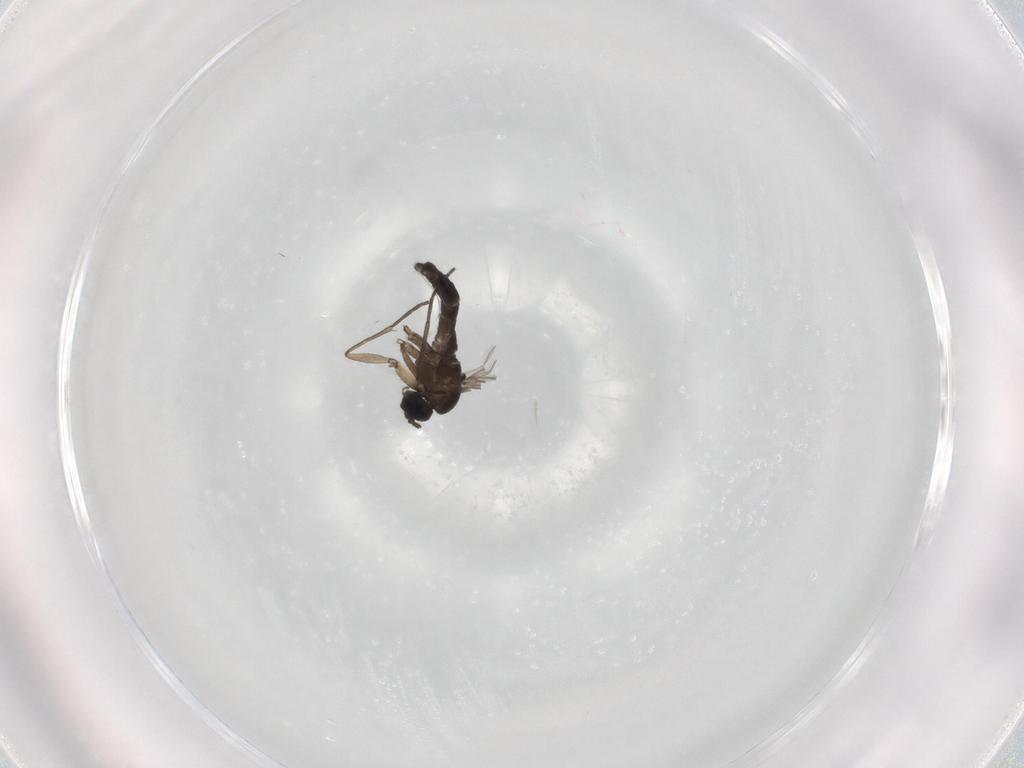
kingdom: Animalia
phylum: Arthropoda
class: Insecta
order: Diptera
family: Sciaridae
